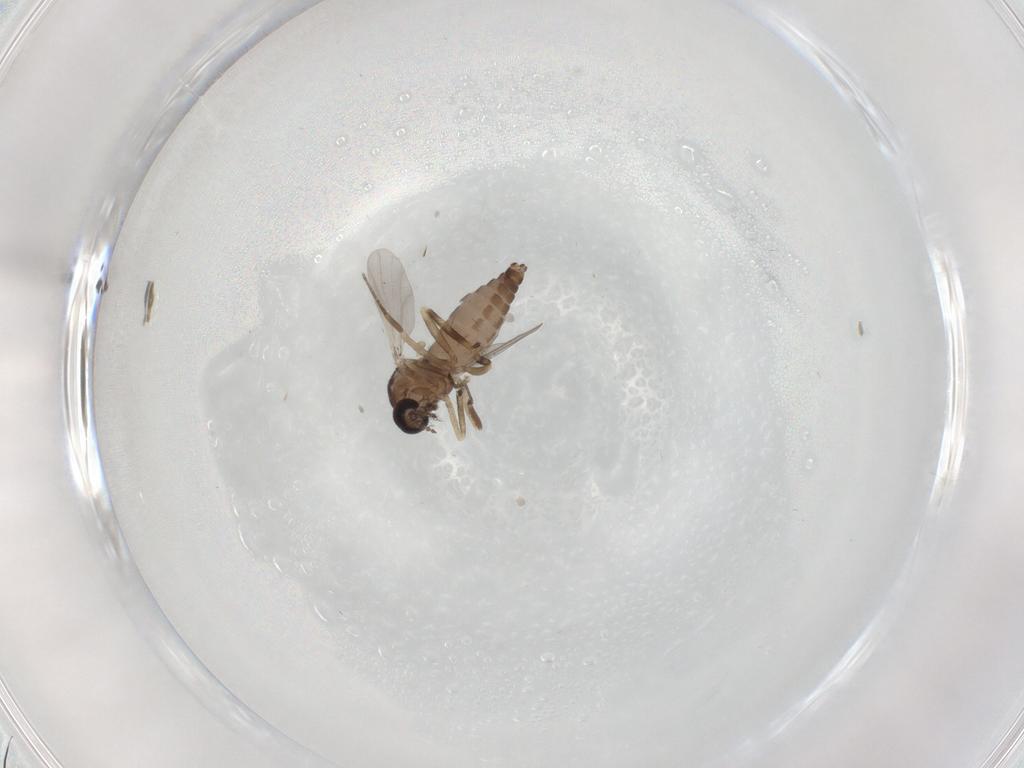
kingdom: Animalia
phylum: Arthropoda
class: Insecta
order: Diptera
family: Ceratopogonidae
